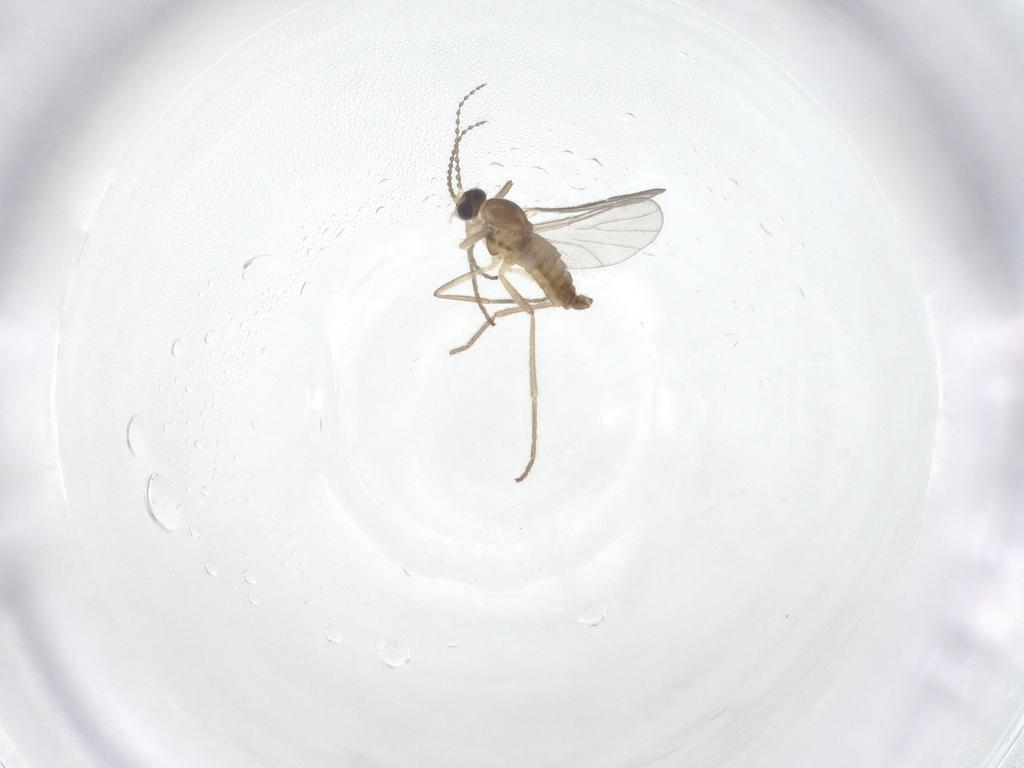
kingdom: Animalia
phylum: Arthropoda
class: Insecta
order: Diptera
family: Cecidomyiidae
